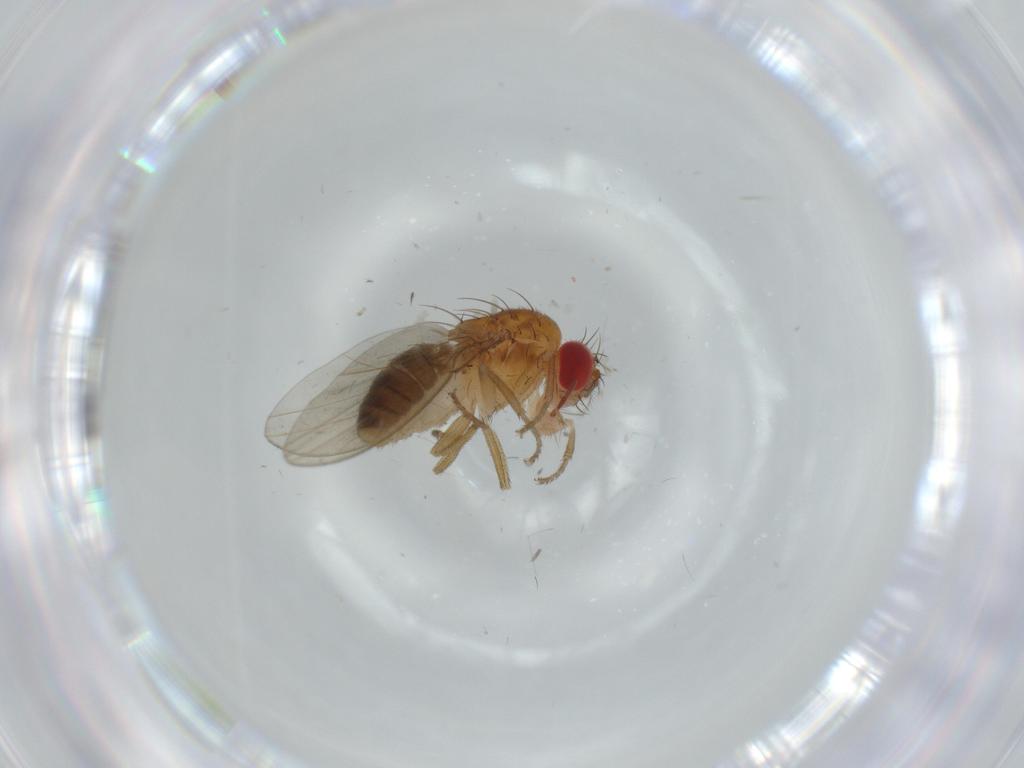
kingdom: Animalia
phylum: Arthropoda
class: Insecta
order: Diptera
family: Drosophilidae
